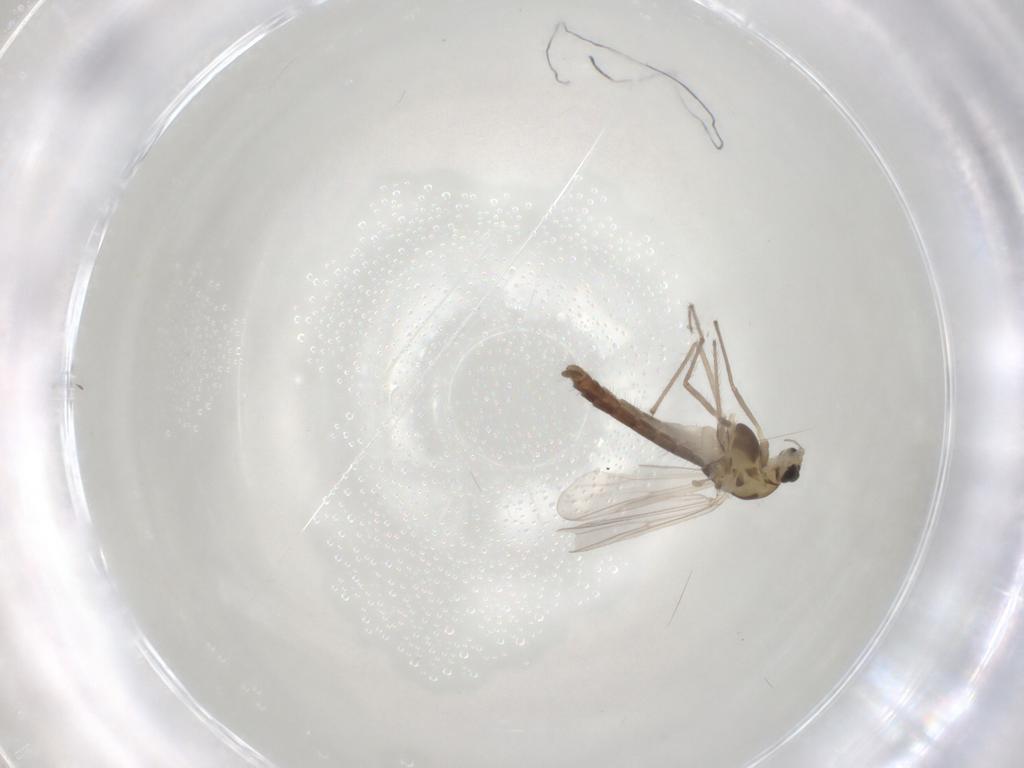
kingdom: Animalia
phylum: Arthropoda
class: Insecta
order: Diptera
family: Chironomidae
